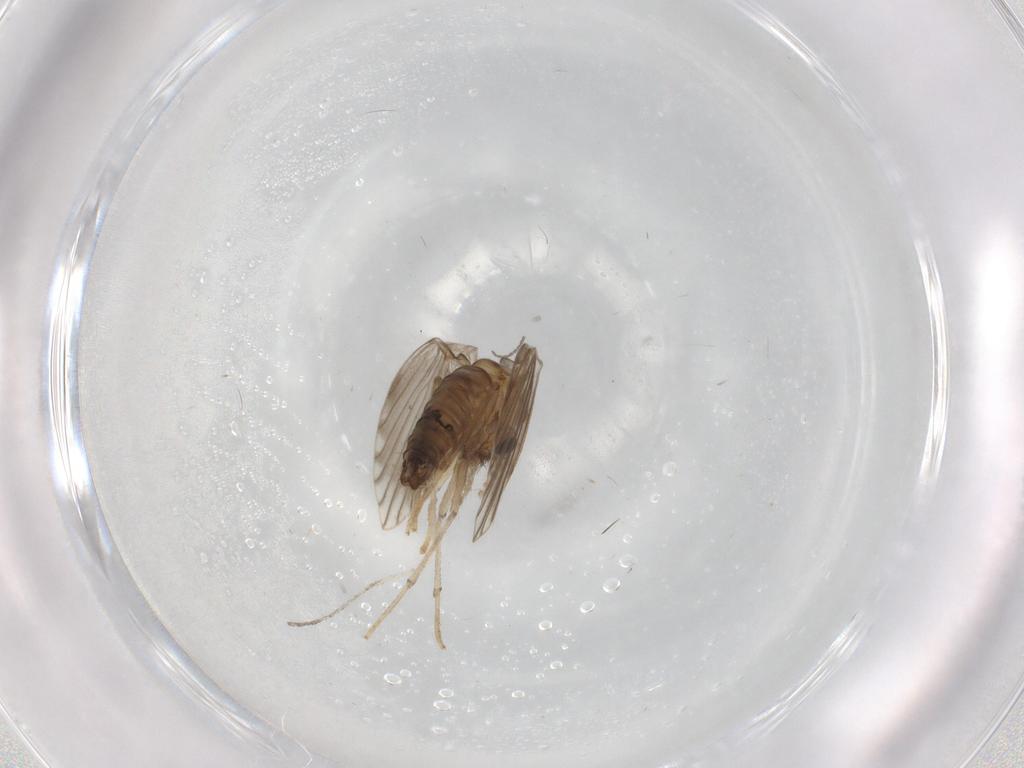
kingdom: Animalia
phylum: Arthropoda
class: Insecta
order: Diptera
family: Psychodidae
